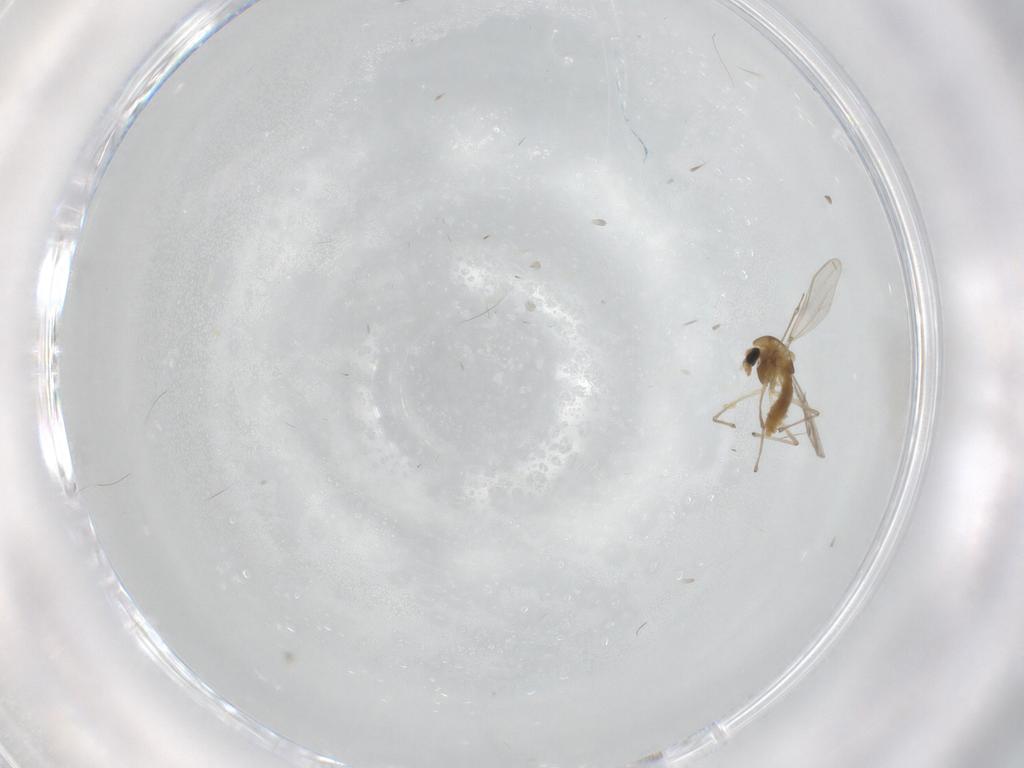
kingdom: Animalia
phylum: Arthropoda
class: Insecta
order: Diptera
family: Chironomidae
